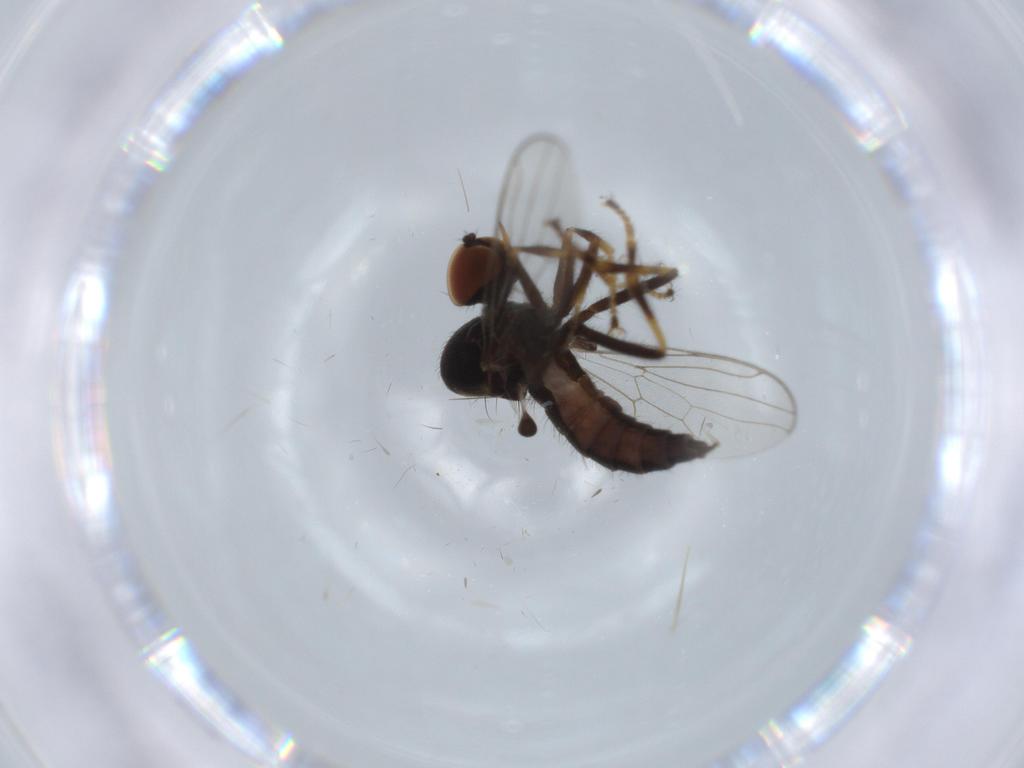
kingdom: Animalia
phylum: Arthropoda
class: Insecta
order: Diptera
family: Hybotidae
